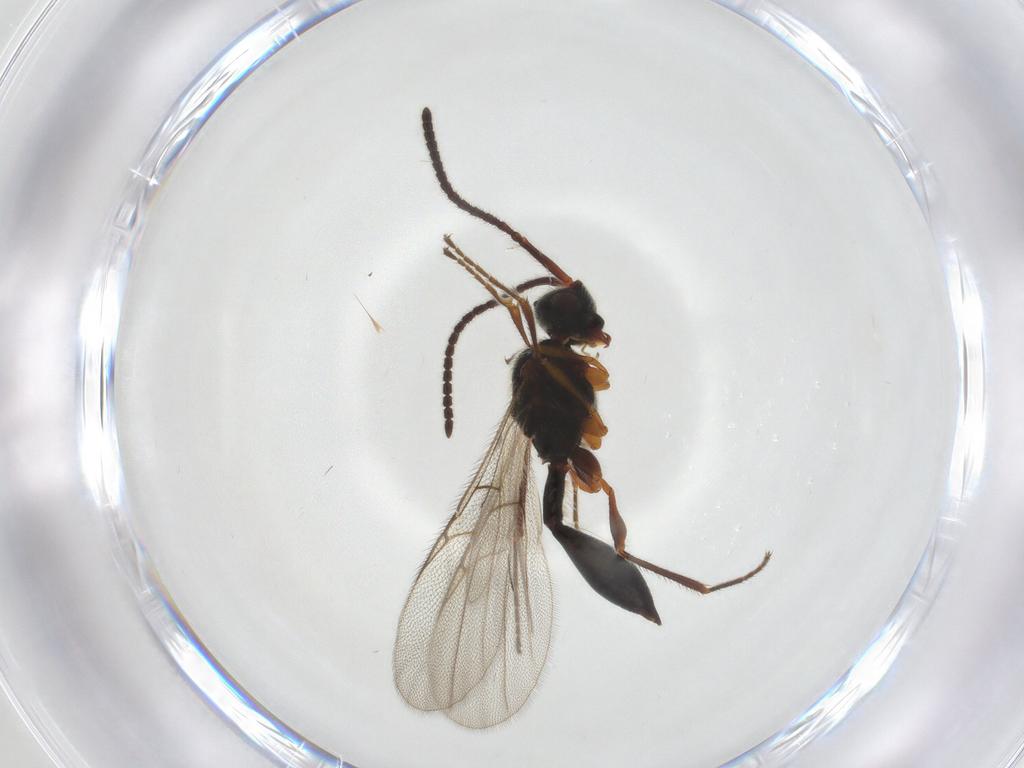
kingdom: Animalia
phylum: Arthropoda
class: Insecta
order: Hymenoptera
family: Diapriidae
